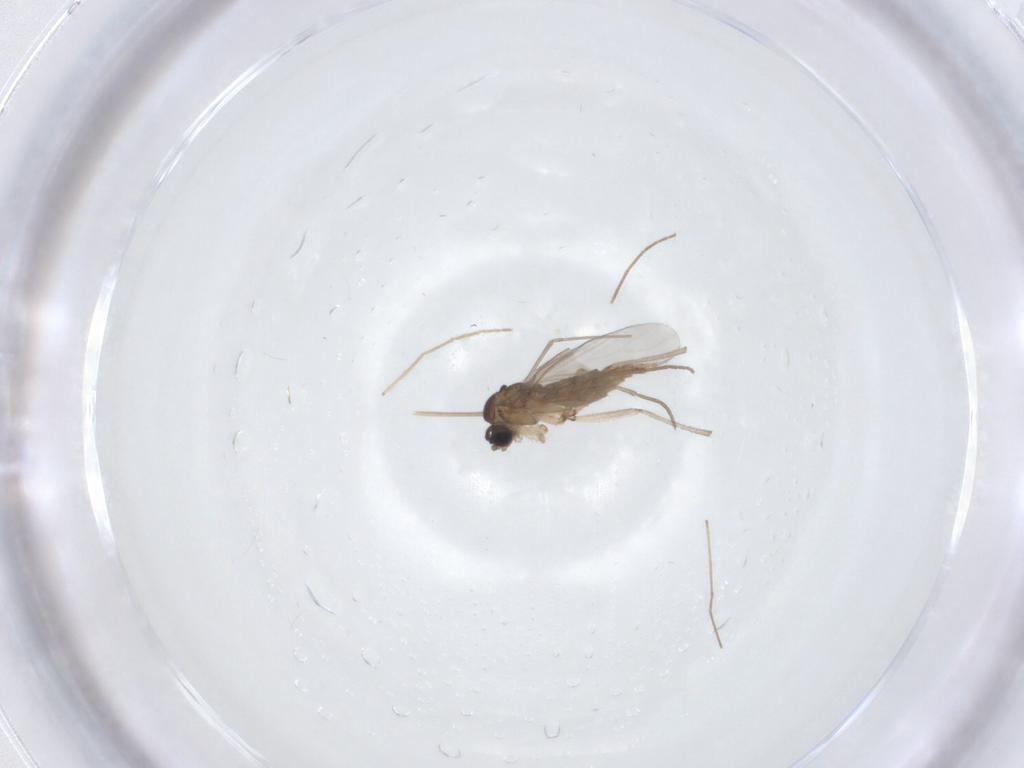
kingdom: Animalia
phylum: Arthropoda
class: Insecta
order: Diptera
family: Sciaridae
